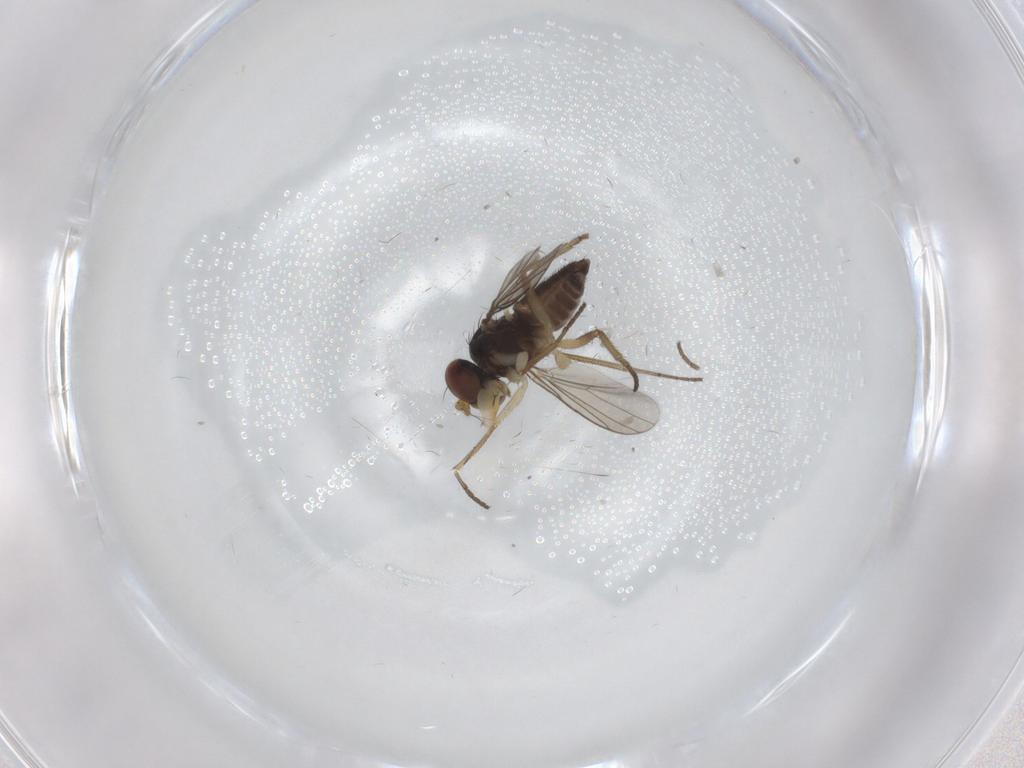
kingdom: Animalia
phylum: Arthropoda
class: Insecta
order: Diptera
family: Dolichopodidae
